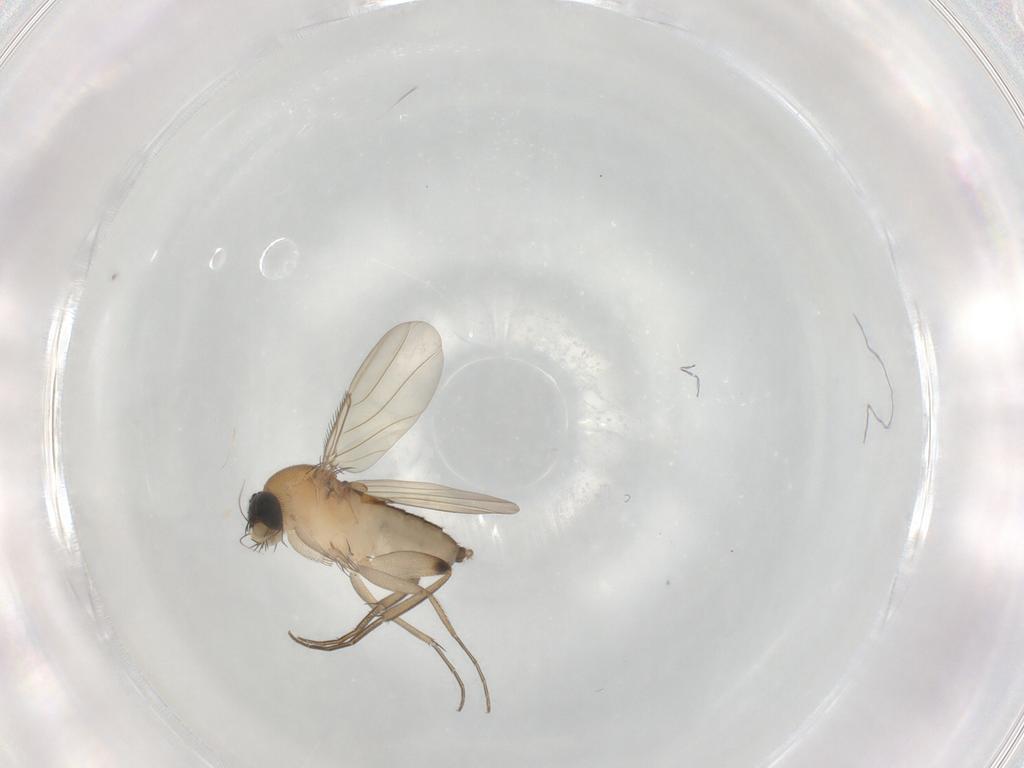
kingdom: Animalia
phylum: Arthropoda
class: Insecta
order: Diptera
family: Phoridae
